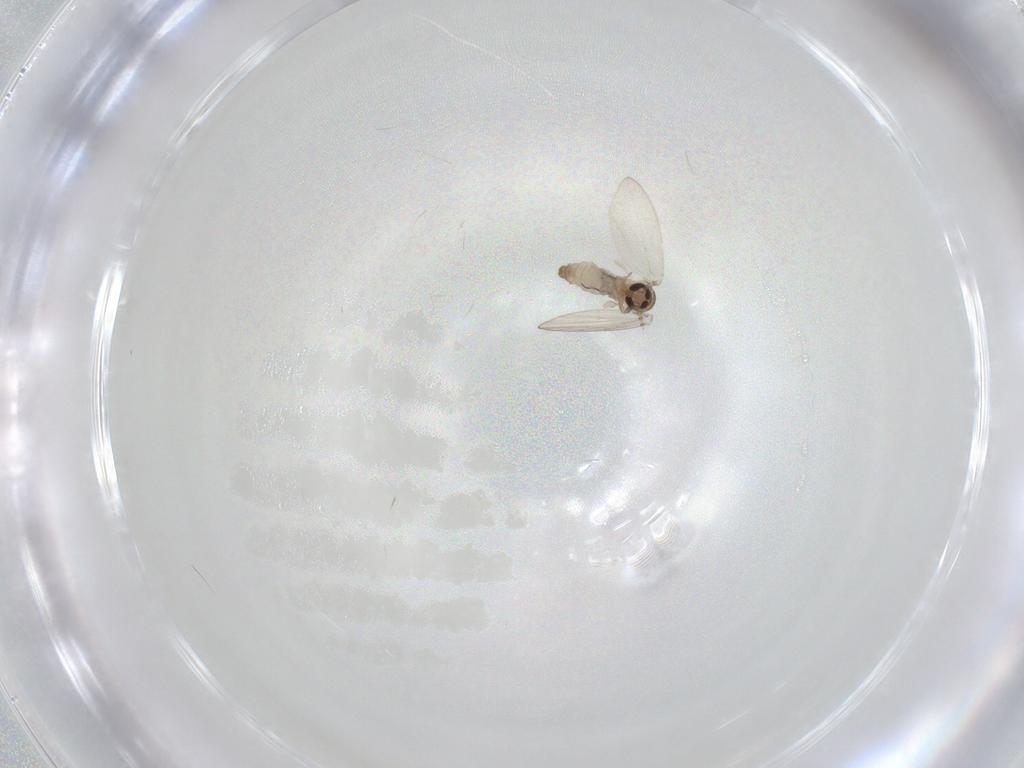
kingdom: Animalia
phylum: Arthropoda
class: Insecta
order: Diptera
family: Psychodidae
